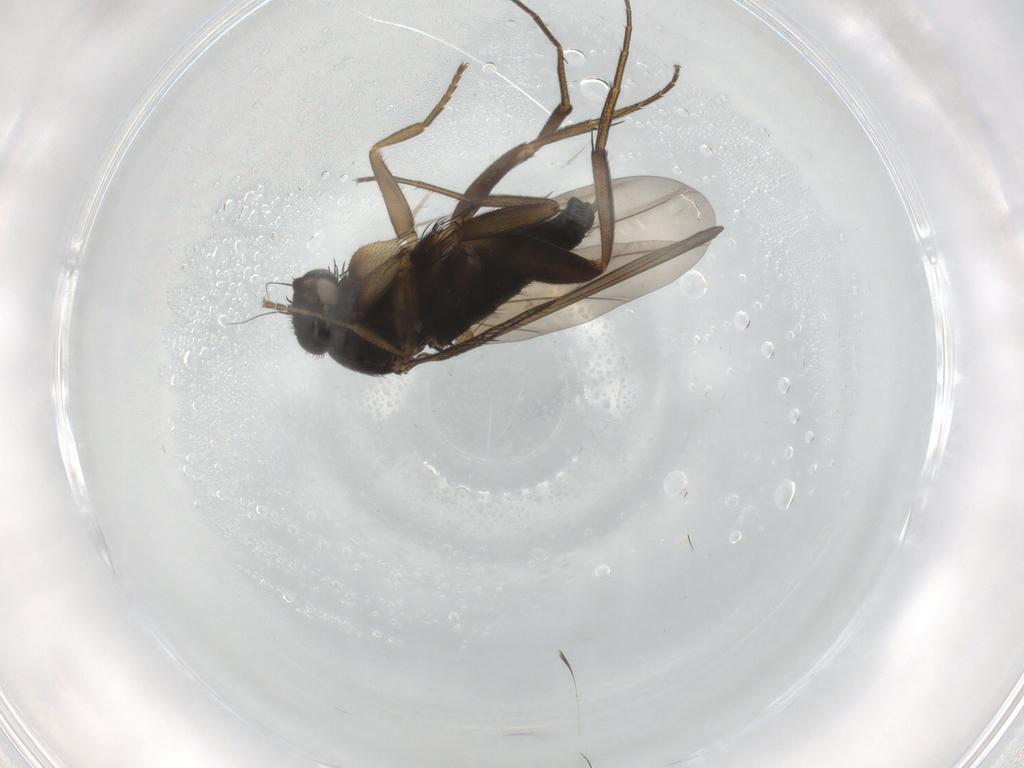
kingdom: Animalia
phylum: Arthropoda
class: Insecta
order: Diptera
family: Phoridae
